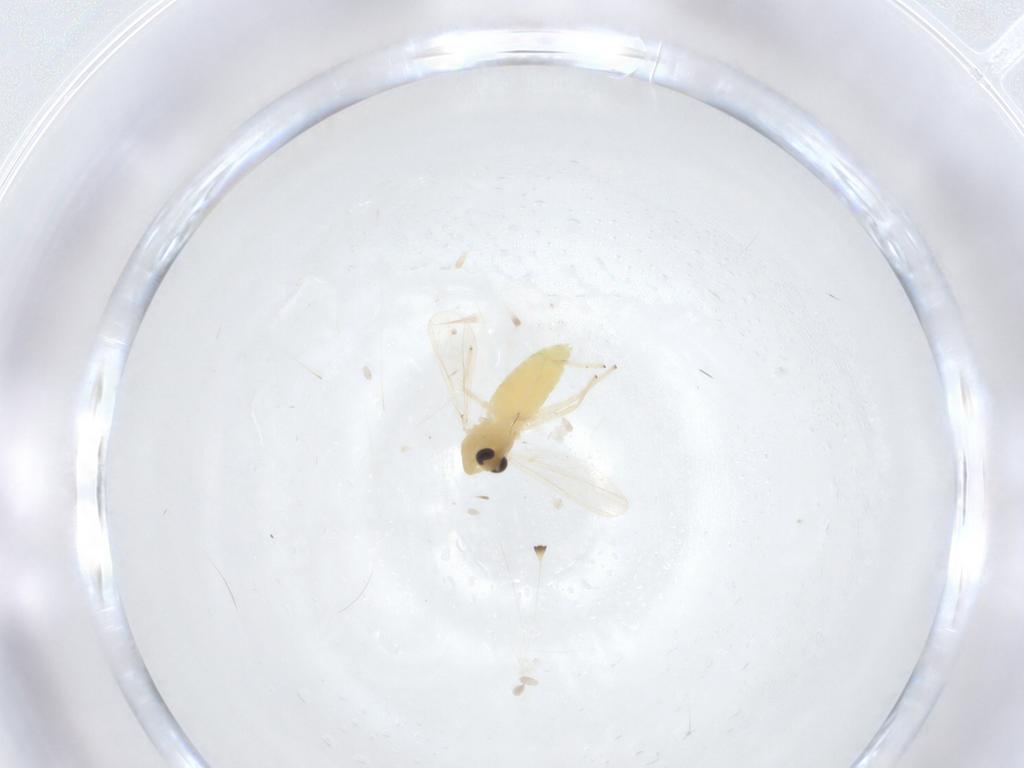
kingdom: Animalia
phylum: Arthropoda
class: Insecta
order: Diptera
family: Chironomidae
